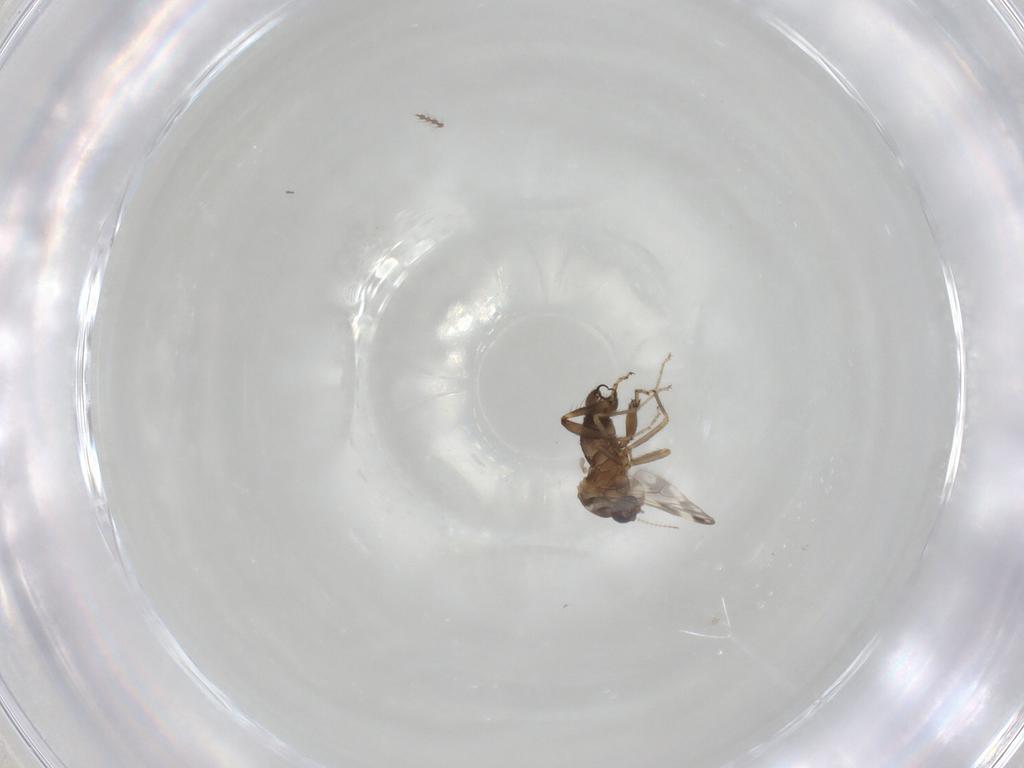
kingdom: Animalia
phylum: Arthropoda
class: Insecta
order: Diptera
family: Ceratopogonidae
